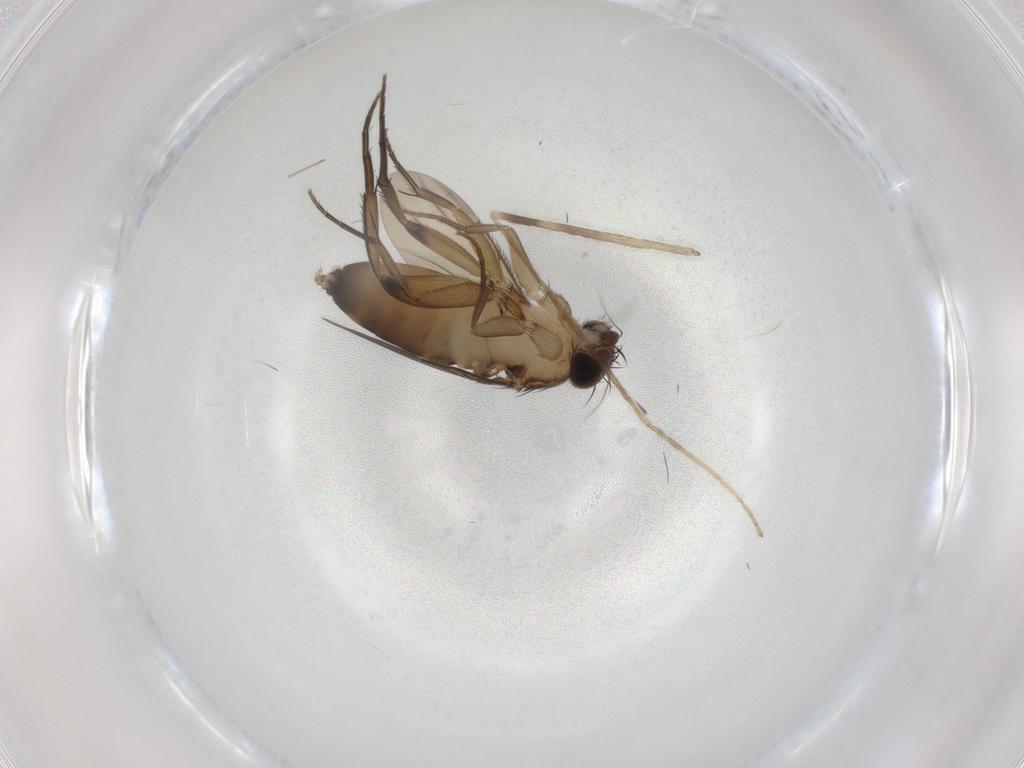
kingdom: Animalia
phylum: Arthropoda
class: Insecta
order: Diptera
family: Phoridae
